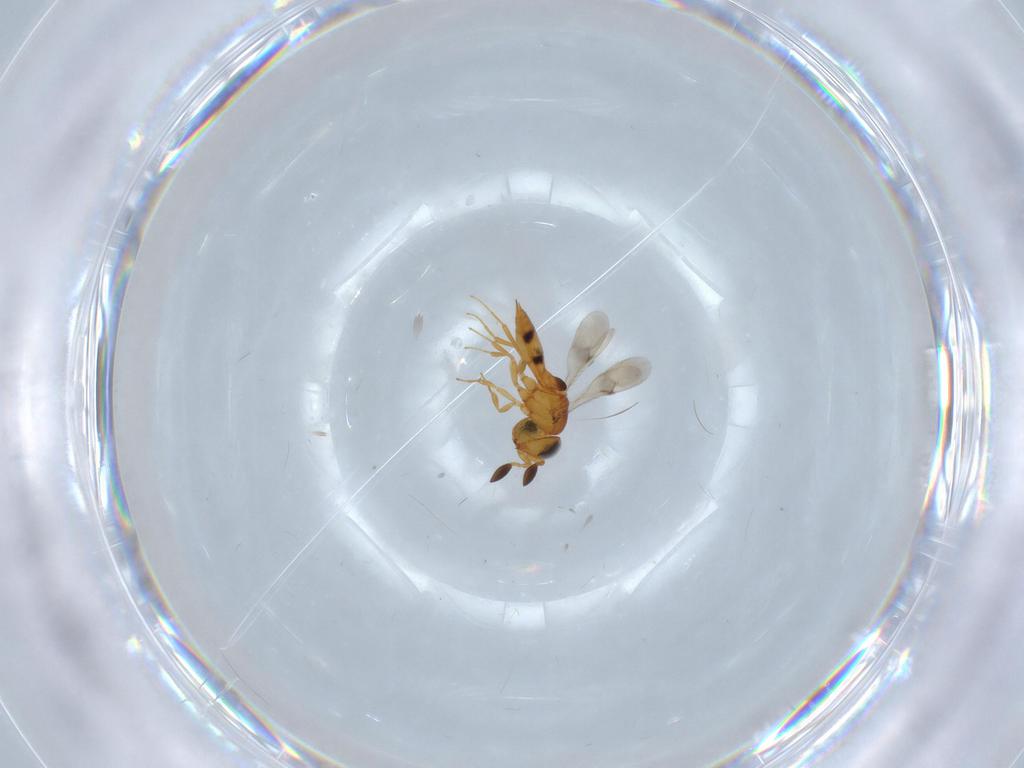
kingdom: Animalia
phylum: Arthropoda
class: Insecta
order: Hymenoptera
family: Scelionidae
